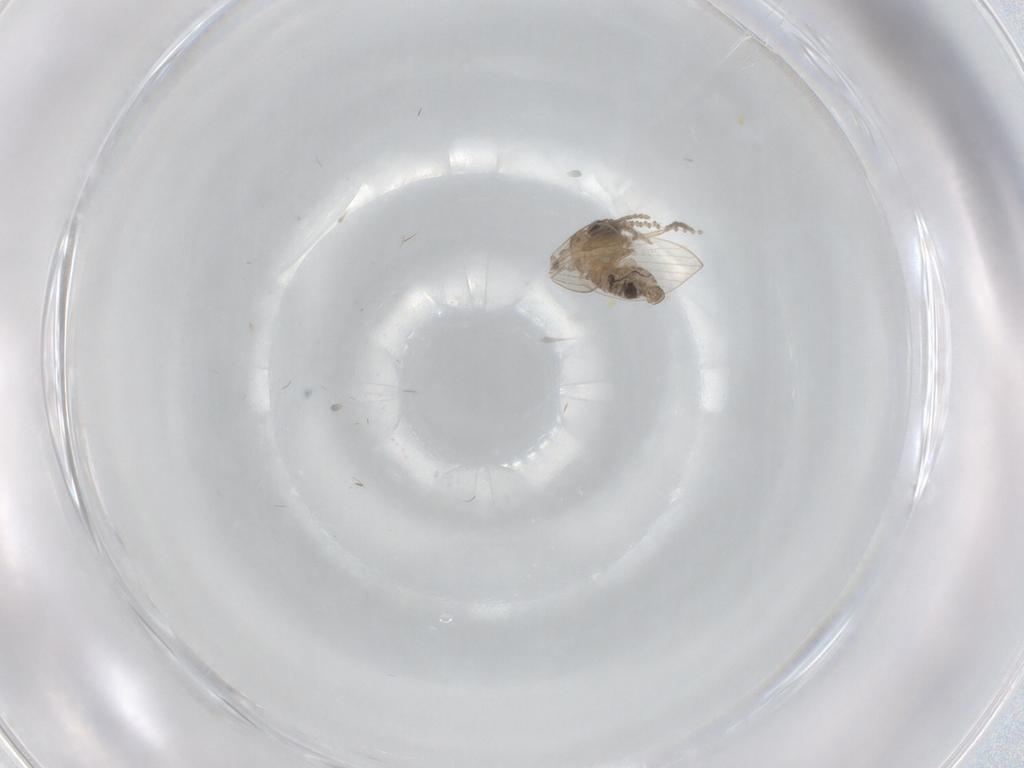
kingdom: Animalia
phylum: Arthropoda
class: Insecta
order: Diptera
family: Psychodidae
